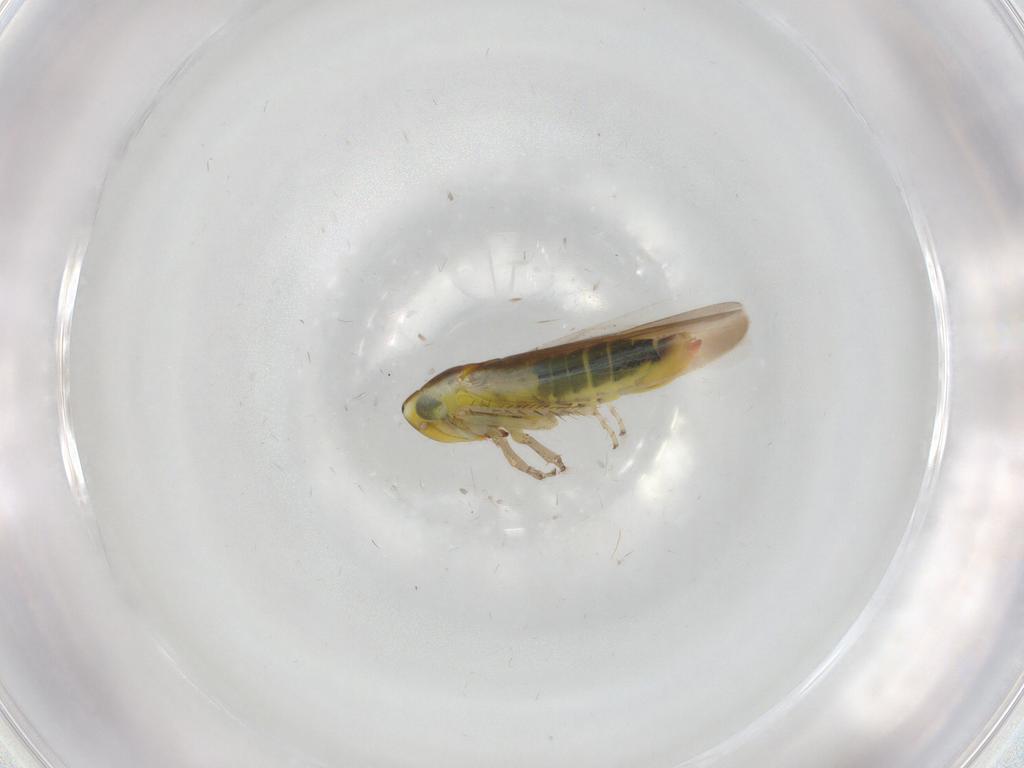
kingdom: Animalia
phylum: Arthropoda
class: Insecta
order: Hemiptera
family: Cicadellidae
